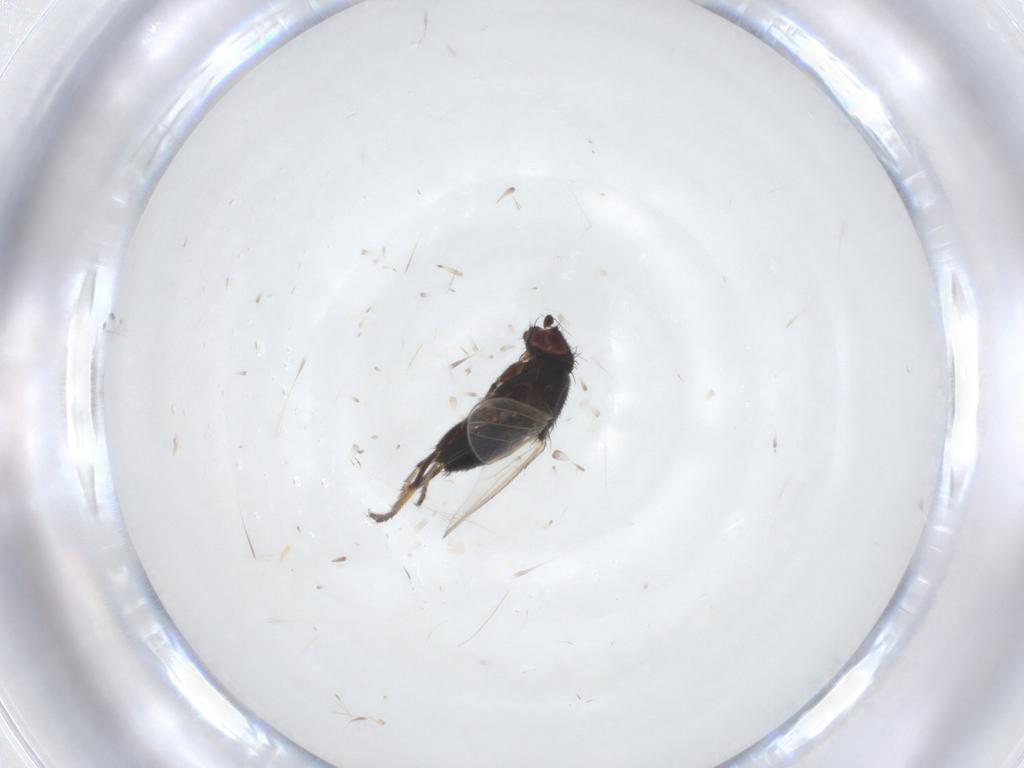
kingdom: Animalia
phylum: Arthropoda
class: Insecta
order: Diptera
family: Milichiidae
